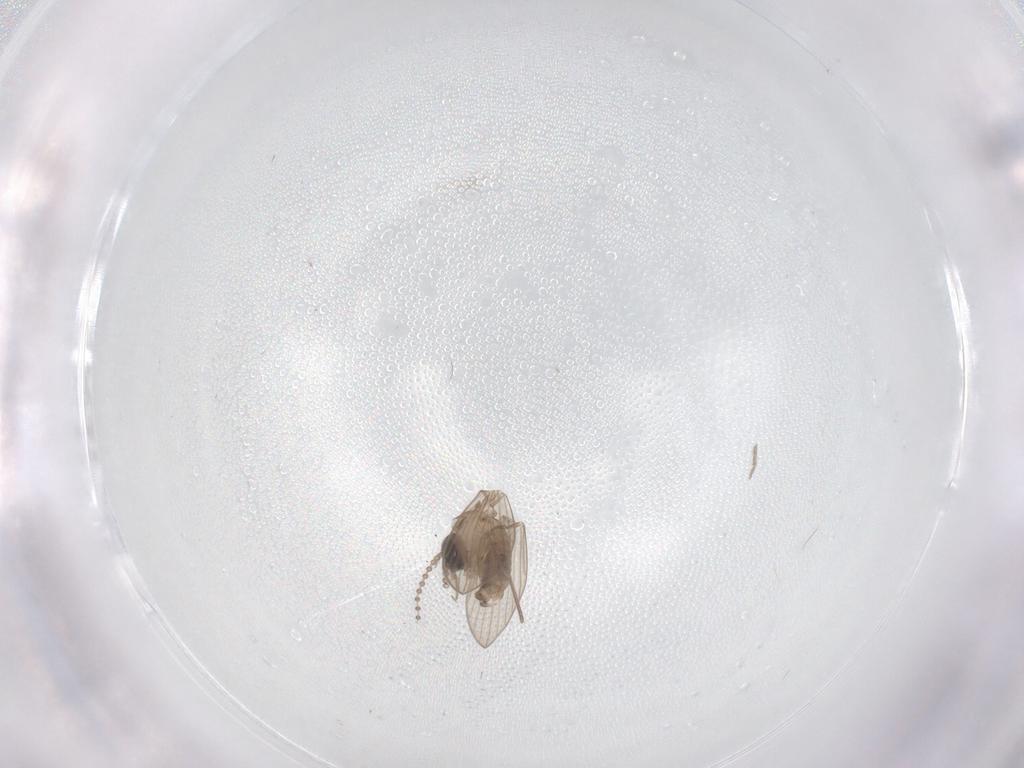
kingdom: Animalia
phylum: Arthropoda
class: Insecta
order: Diptera
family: Psychodidae
